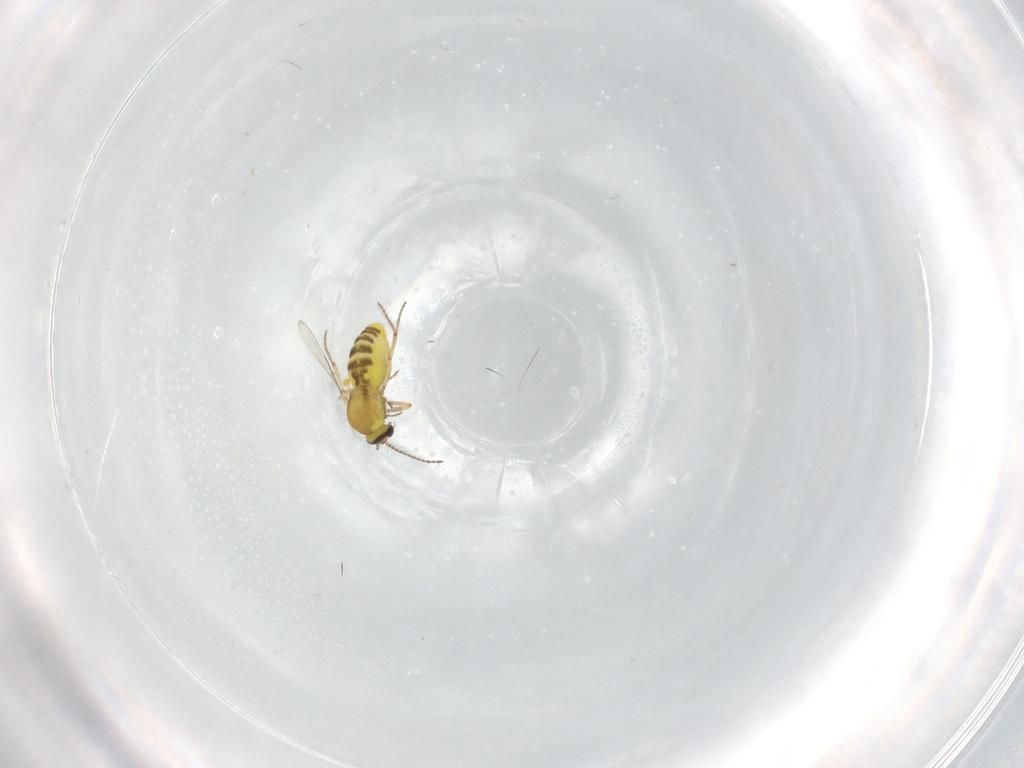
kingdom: Animalia
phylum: Arthropoda
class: Insecta
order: Diptera
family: Ceratopogonidae
